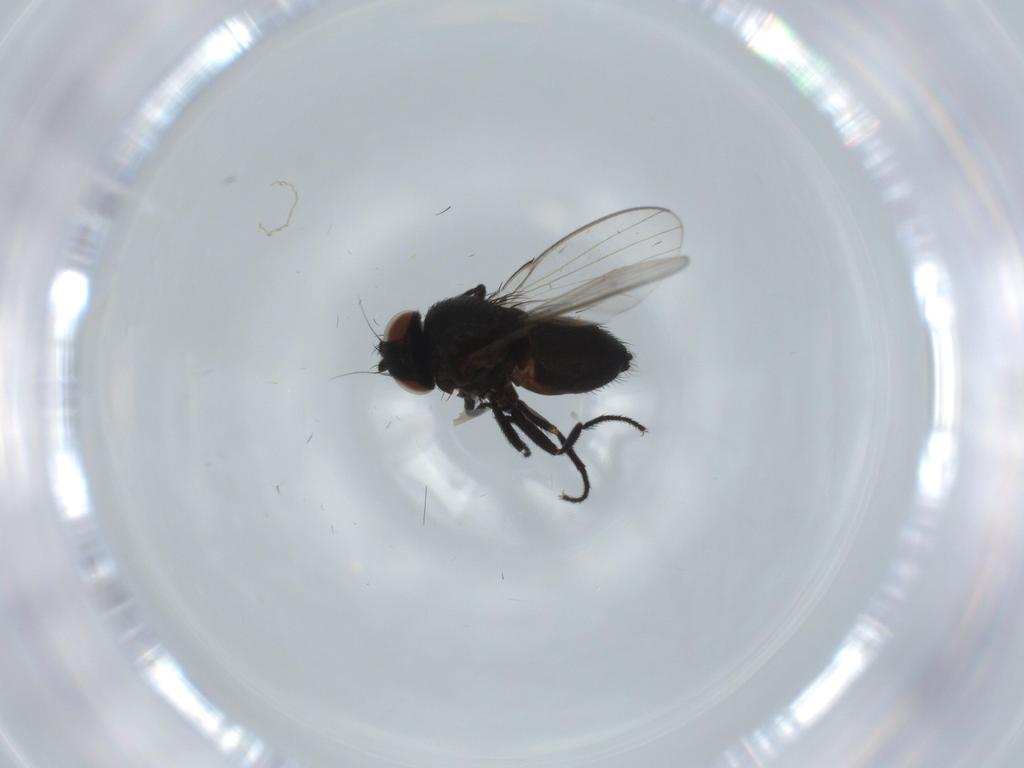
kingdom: Animalia
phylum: Arthropoda
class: Insecta
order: Diptera
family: Milichiidae
